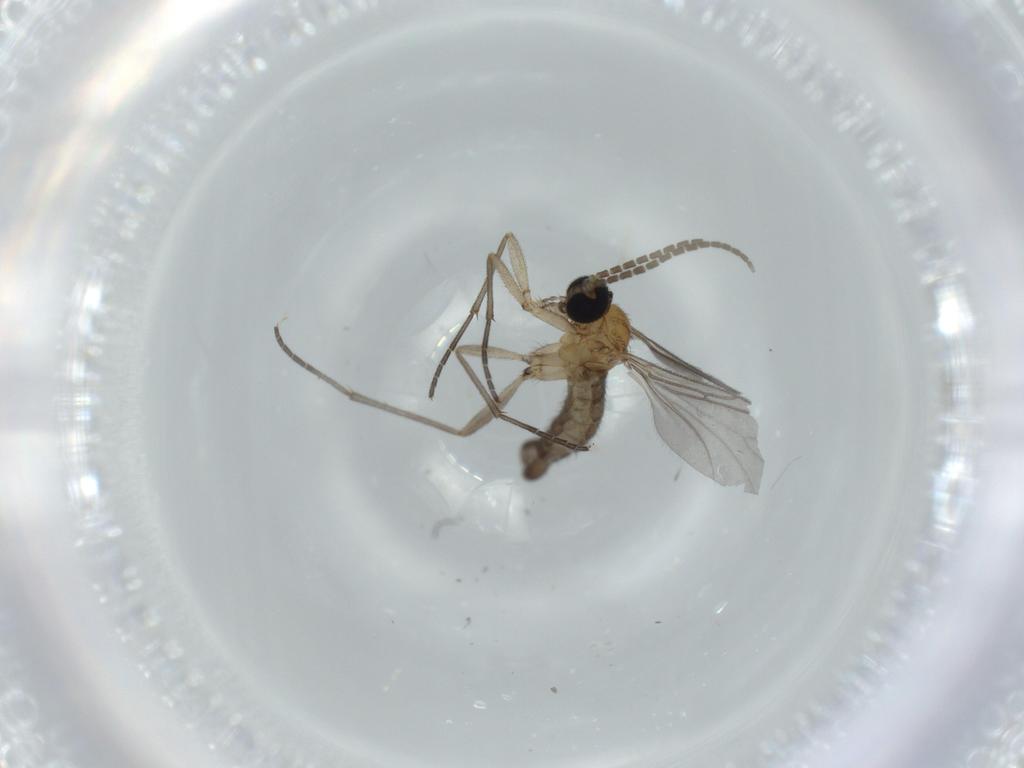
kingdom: Animalia
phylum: Arthropoda
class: Insecta
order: Diptera
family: Sciaridae
